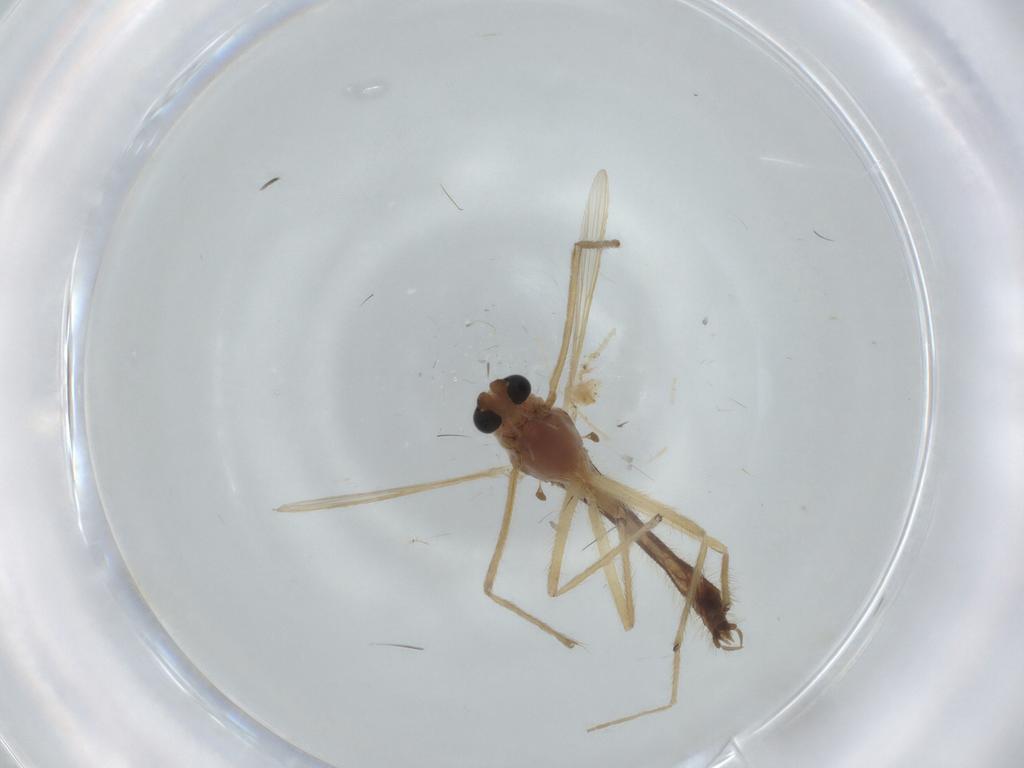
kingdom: Animalia
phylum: Arthropoda
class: Insecta
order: Diptera
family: Chironomidae
